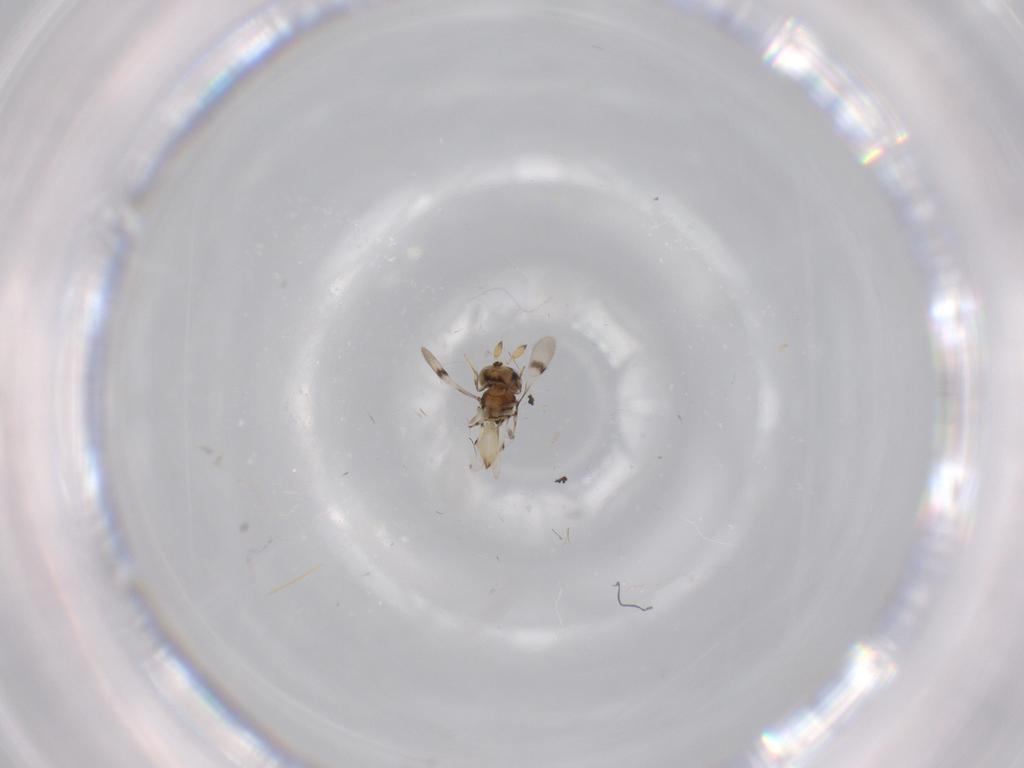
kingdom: Animalia
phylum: Arthropoda
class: Insecta
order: Hymenoptera
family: Scelionidae
